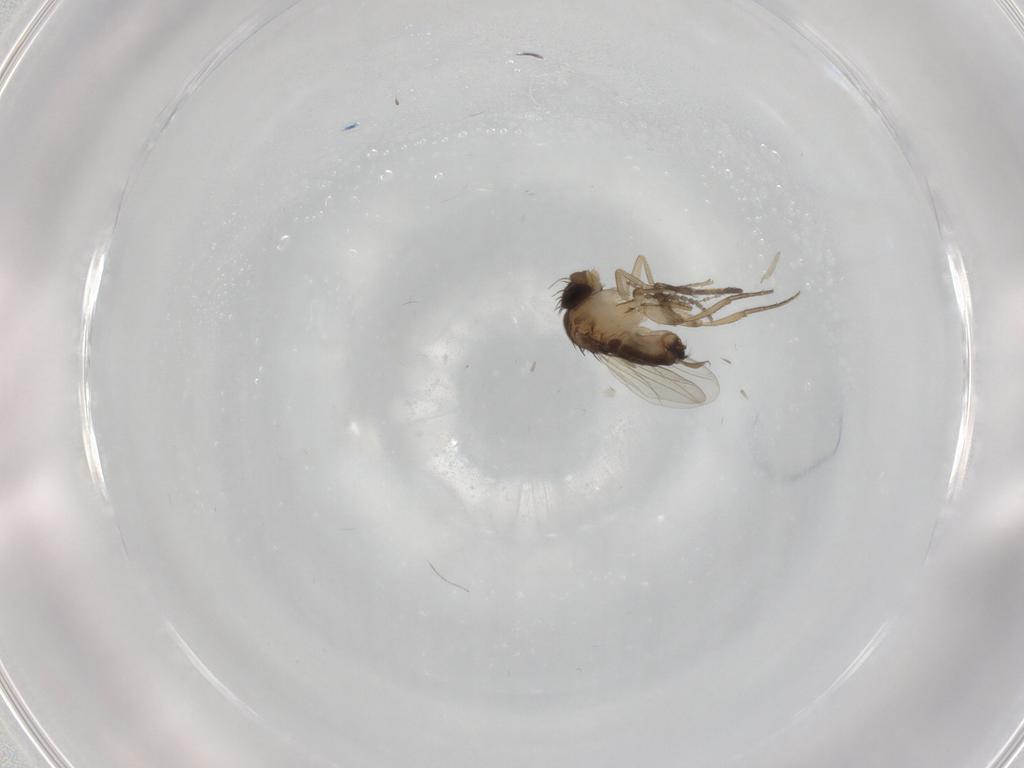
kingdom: Animalia
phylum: Arthropoda
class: Insecta
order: Diptera
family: Cecidomyiidae
